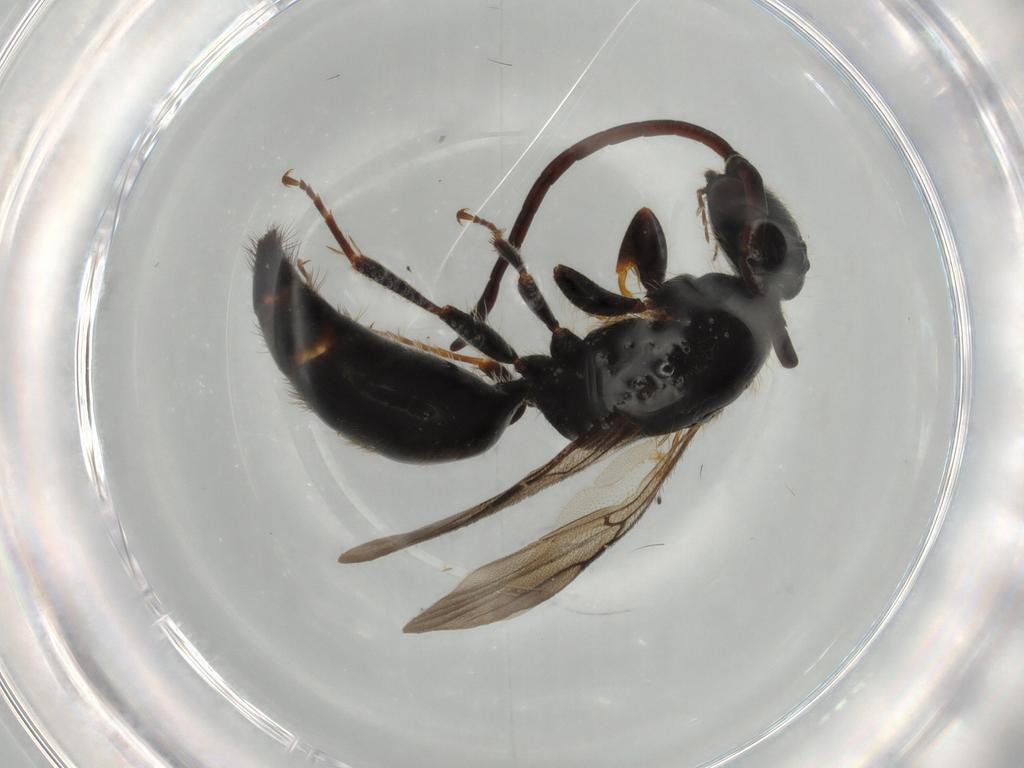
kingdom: Animalia
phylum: Arthropoda
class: Insecta
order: Hymenoptera
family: Bethylidae
